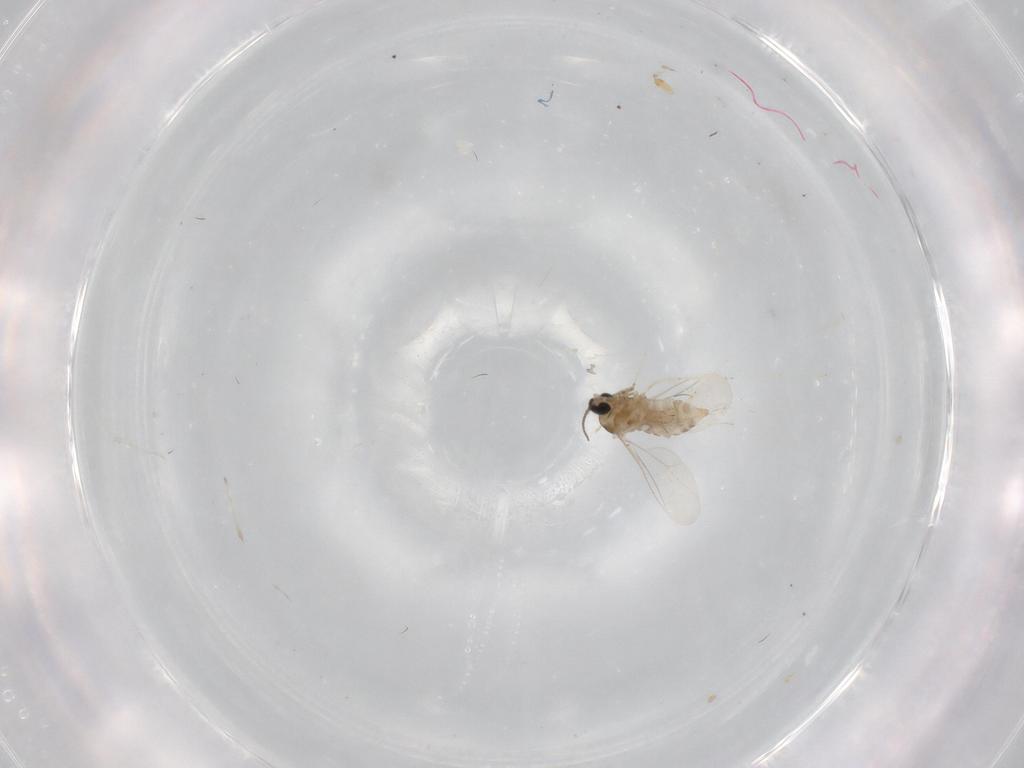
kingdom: Animalia
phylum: Arthropoda
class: Insecta
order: Diptera
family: Cecidomyiidae
